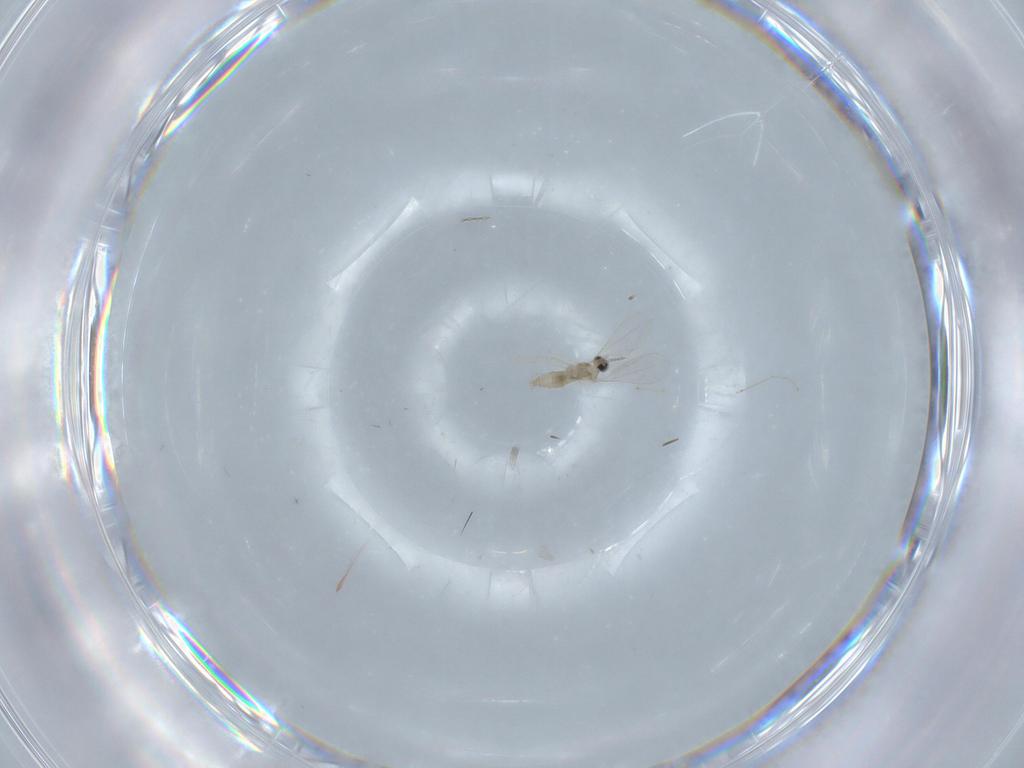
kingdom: Animalia
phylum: Arthropoda
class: Insecta
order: Diptera
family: Cecidomyiidae
